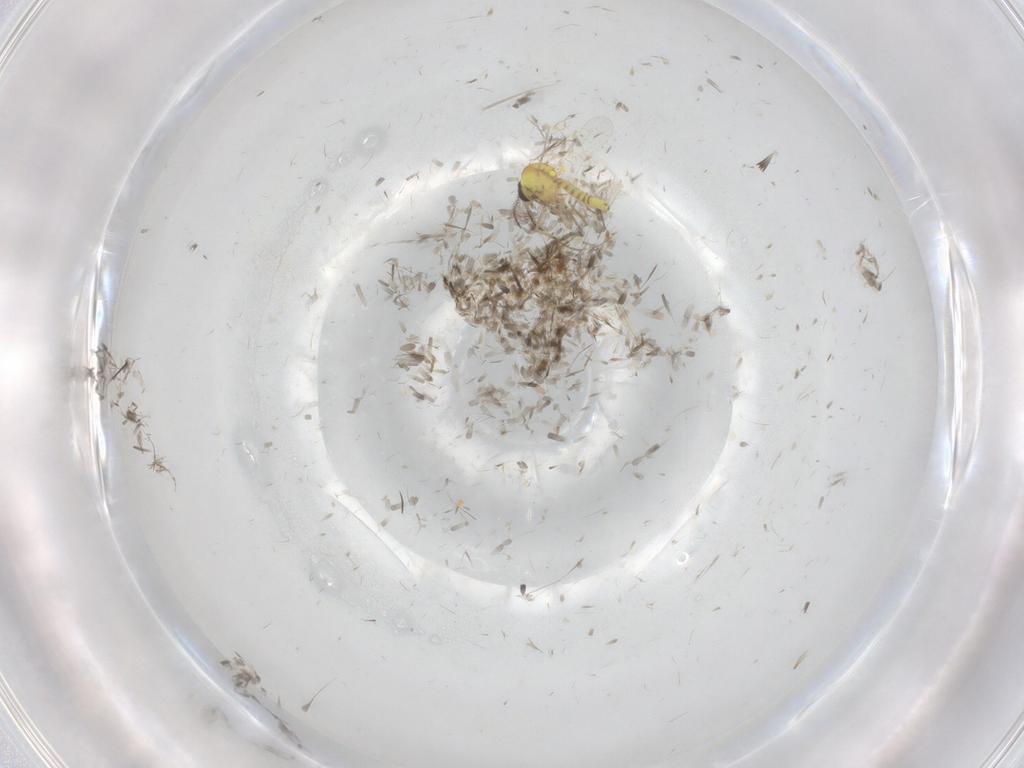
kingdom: Animalia
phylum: Arthropoda
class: Insecta
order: Diptera
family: Ceratopogonidae
